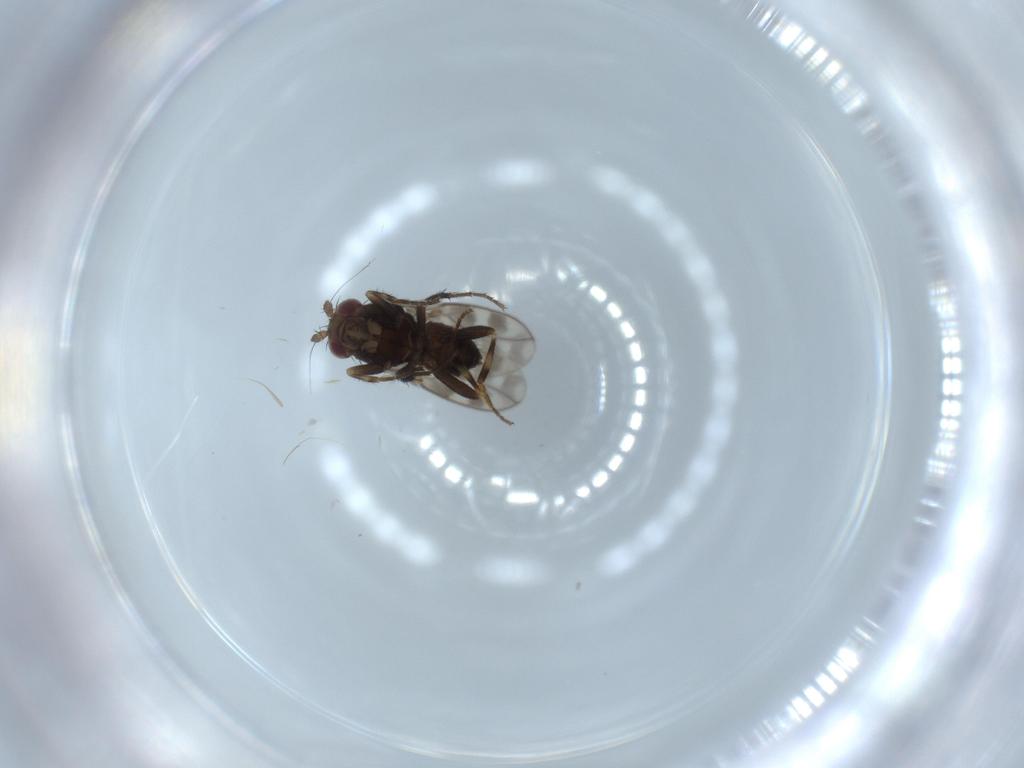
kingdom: Animalia
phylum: Arthropoda
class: Insecta
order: Diptera
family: Sphaeroceridae
